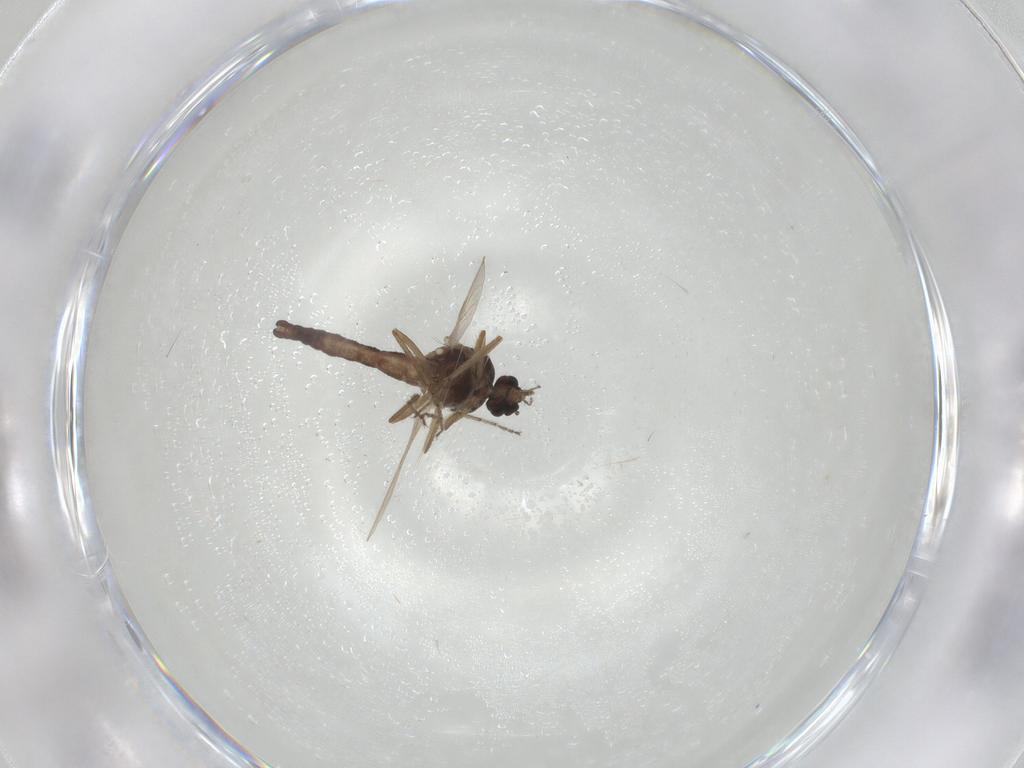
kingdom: Animalia
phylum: Arthropoda
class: Insecta
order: Diptera
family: Ceratopogonidae
